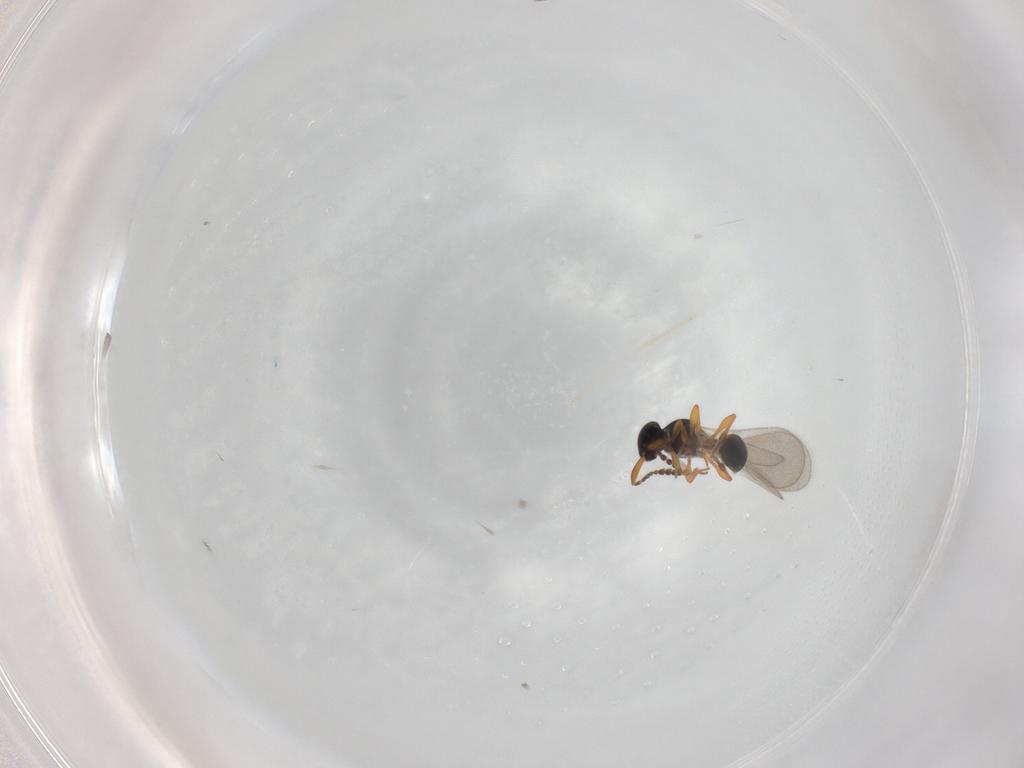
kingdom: Animalia
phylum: Arthropoda
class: Insecta
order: Hymenoptera
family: Platygastridae
